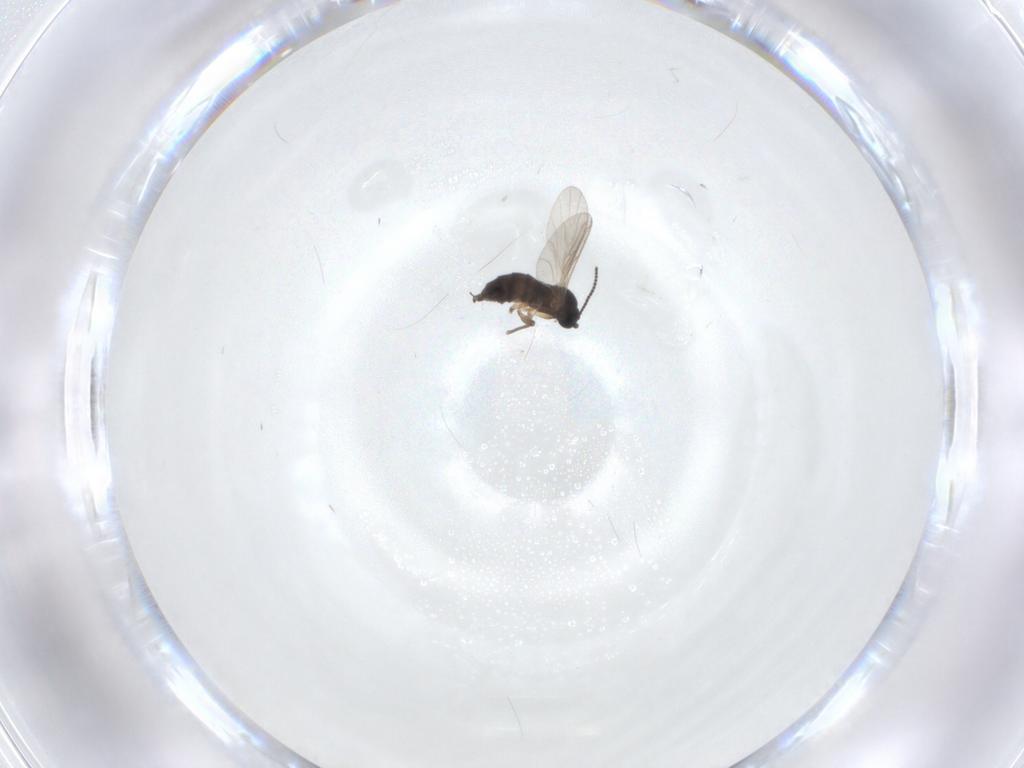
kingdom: Animalia
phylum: Arthropoda
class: Insecta
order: Diptera
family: Sciaridae
